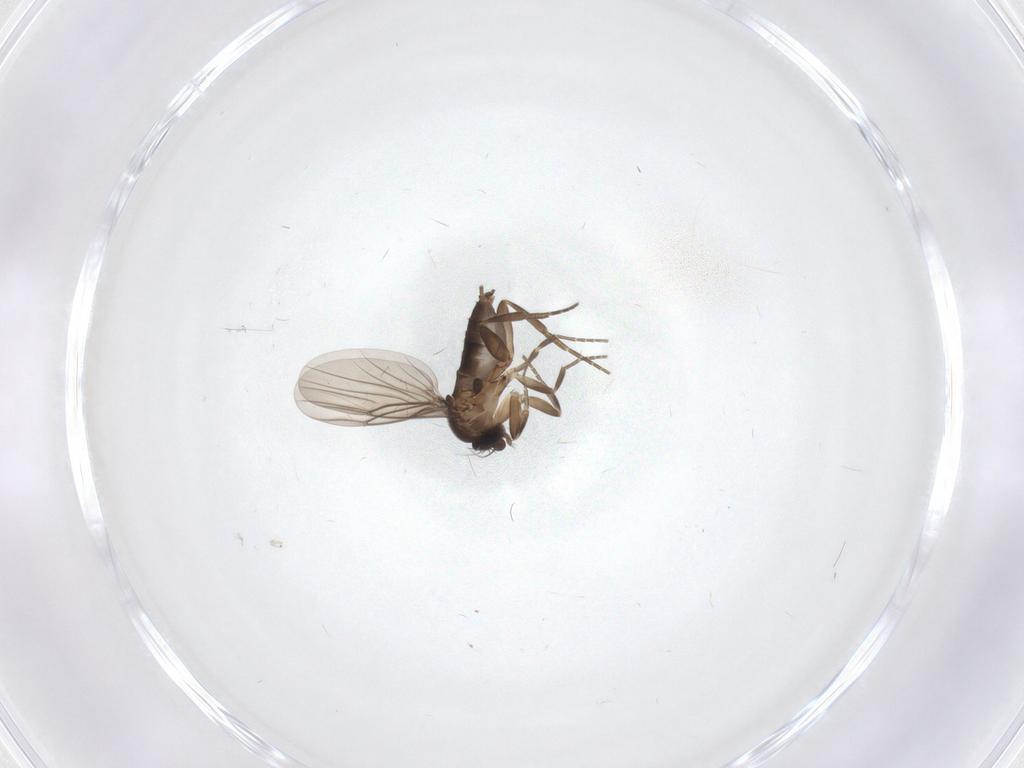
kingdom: Animalia
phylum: Arthropoda
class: Insecta
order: Diptera
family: Phoridae
